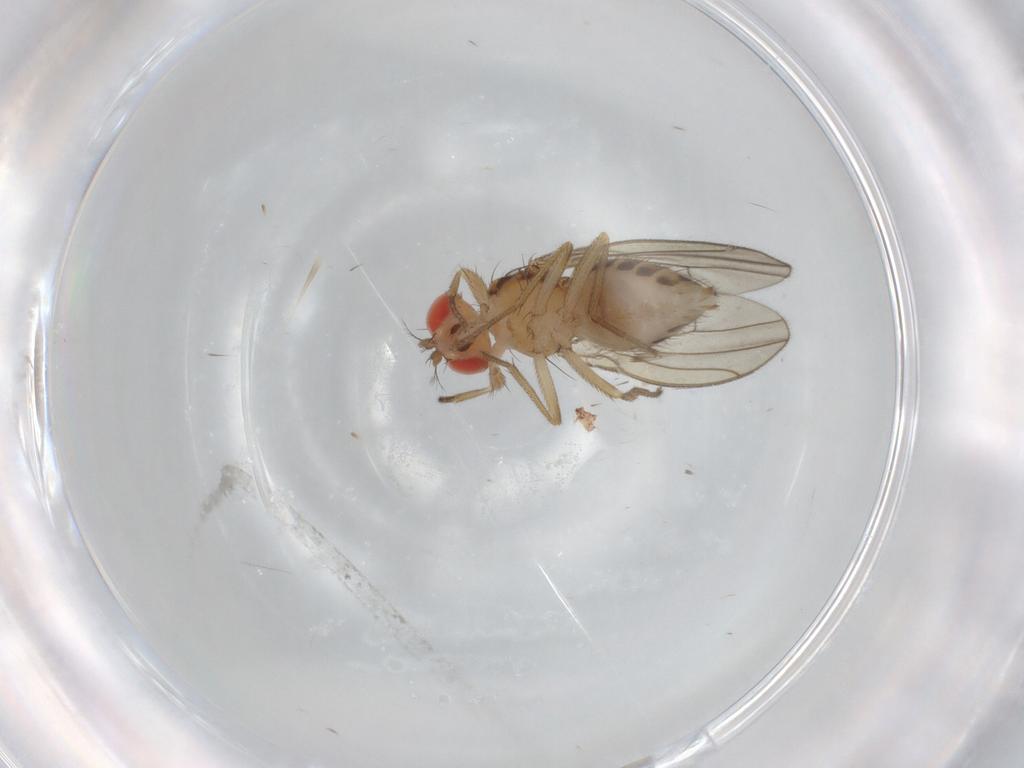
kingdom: Animalia
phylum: Arthropoda
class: Insecta
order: Diptera
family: Drosophilidae
